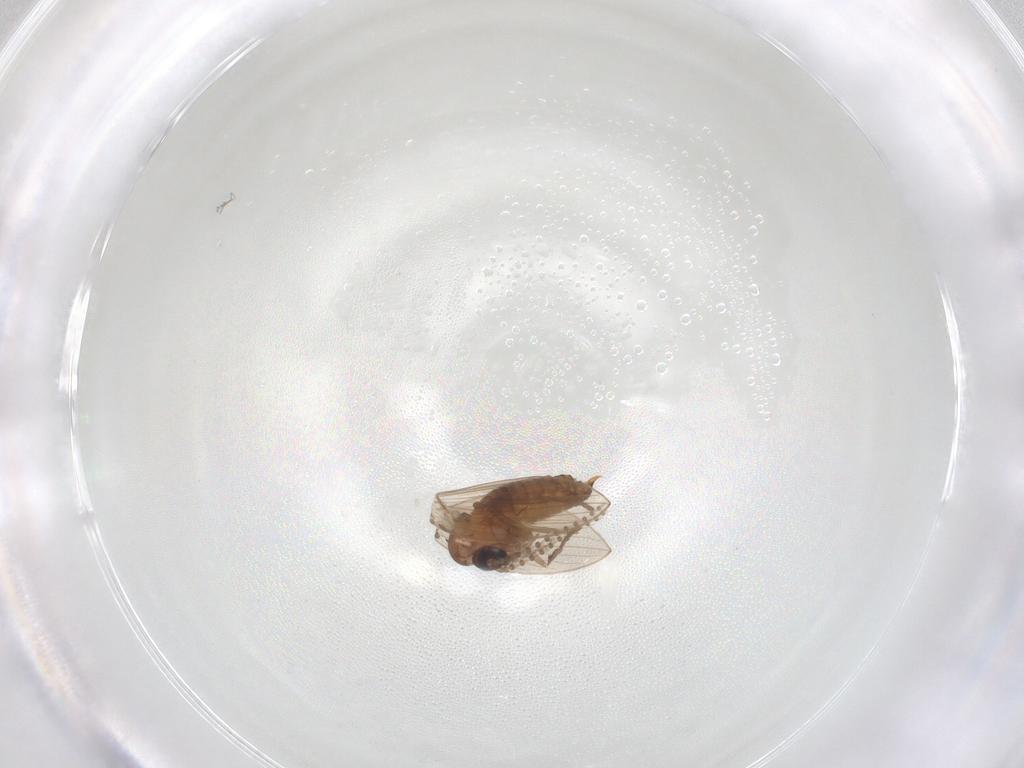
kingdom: Animalia
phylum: Arthropoda
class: Insecta
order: Diptera
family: Psychodidae
